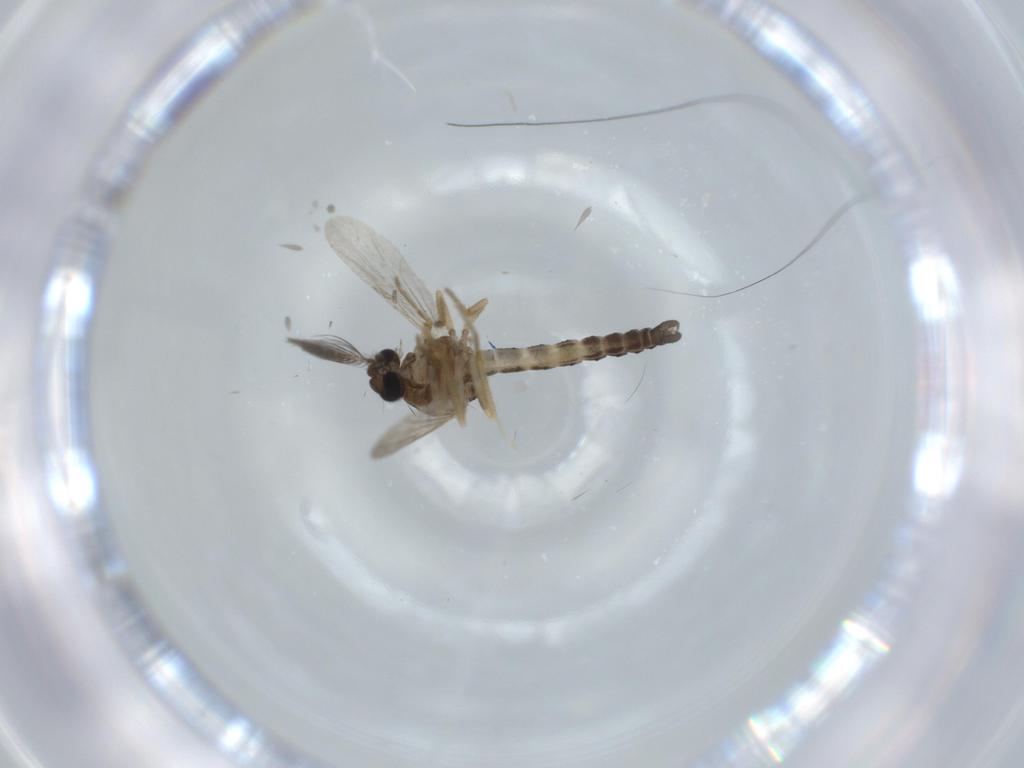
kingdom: Animalia
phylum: Arthropoda
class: Insecta
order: Diptera
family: Ceratopogonidae
